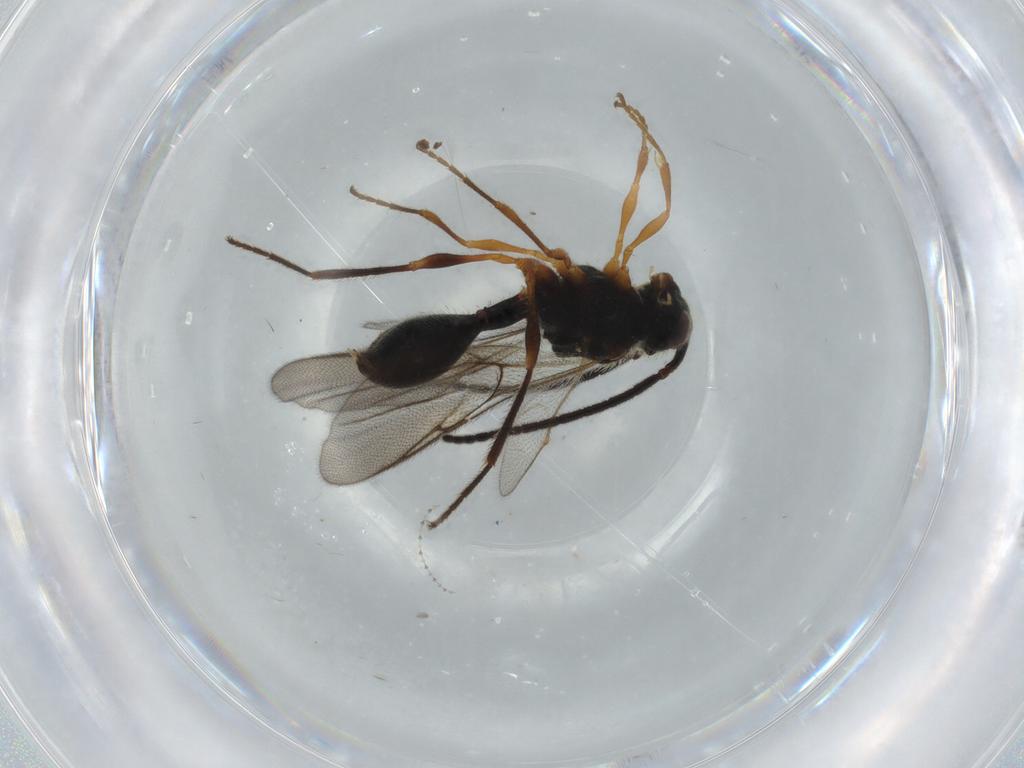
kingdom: Animalia
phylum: Arthropoda
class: Insecta
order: Hymenoptera
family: Diapriidae
